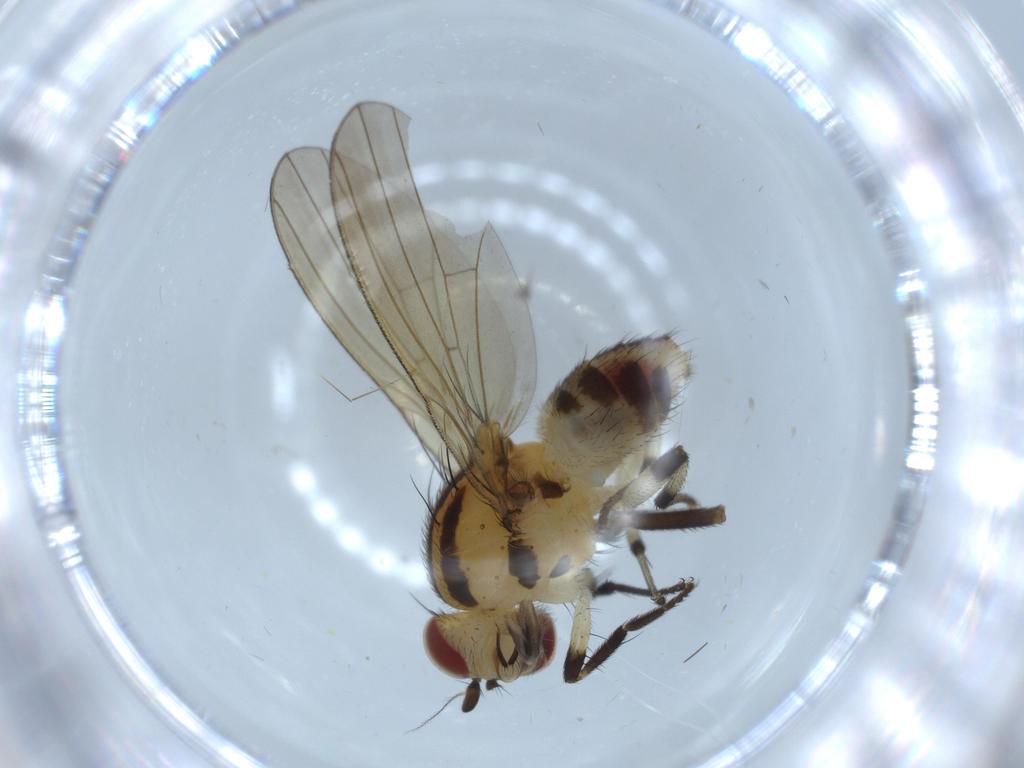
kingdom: Animalia
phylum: Arthropoda
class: Insecta
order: Diptera
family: Lauxaniidae
